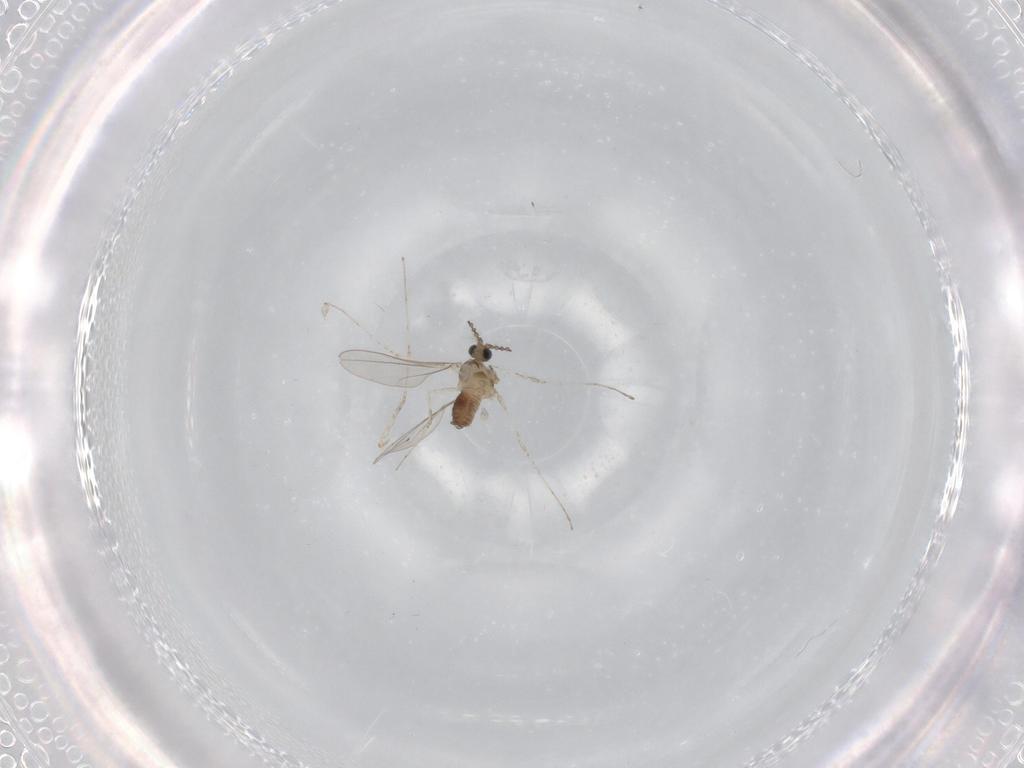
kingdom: Animalia
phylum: Arthropoda
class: Insecta
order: Diptera
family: Cecidomyiidae
